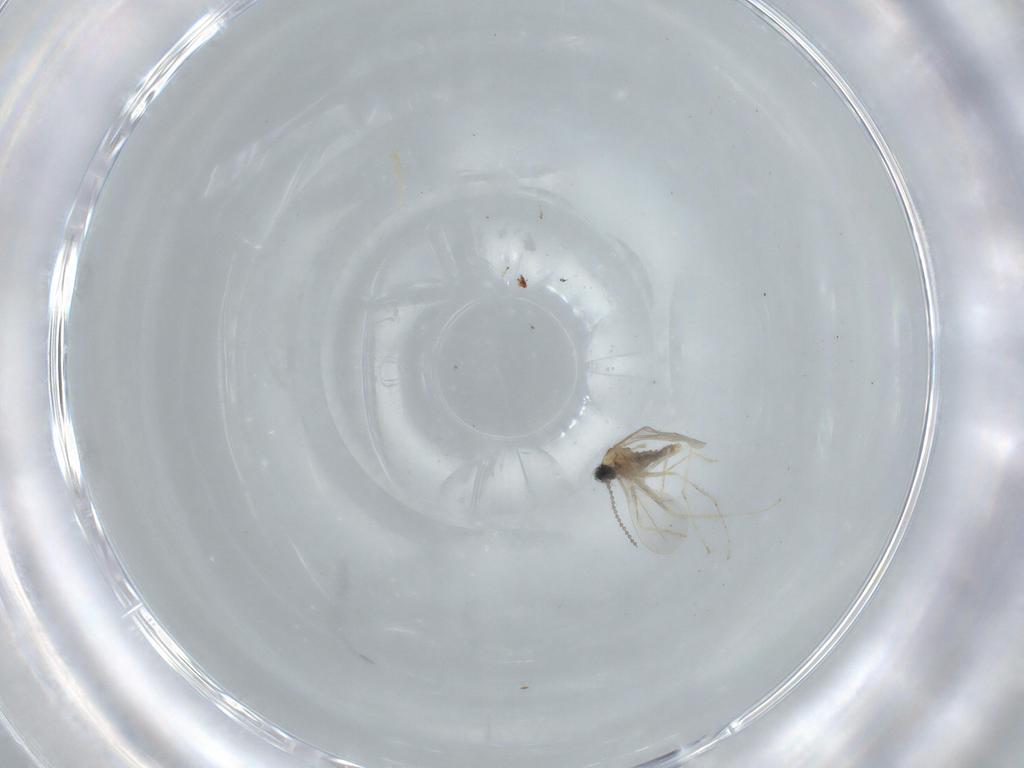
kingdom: Animalia
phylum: Arthropoda
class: Insecta
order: Diptera
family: Cecidomyiidae
